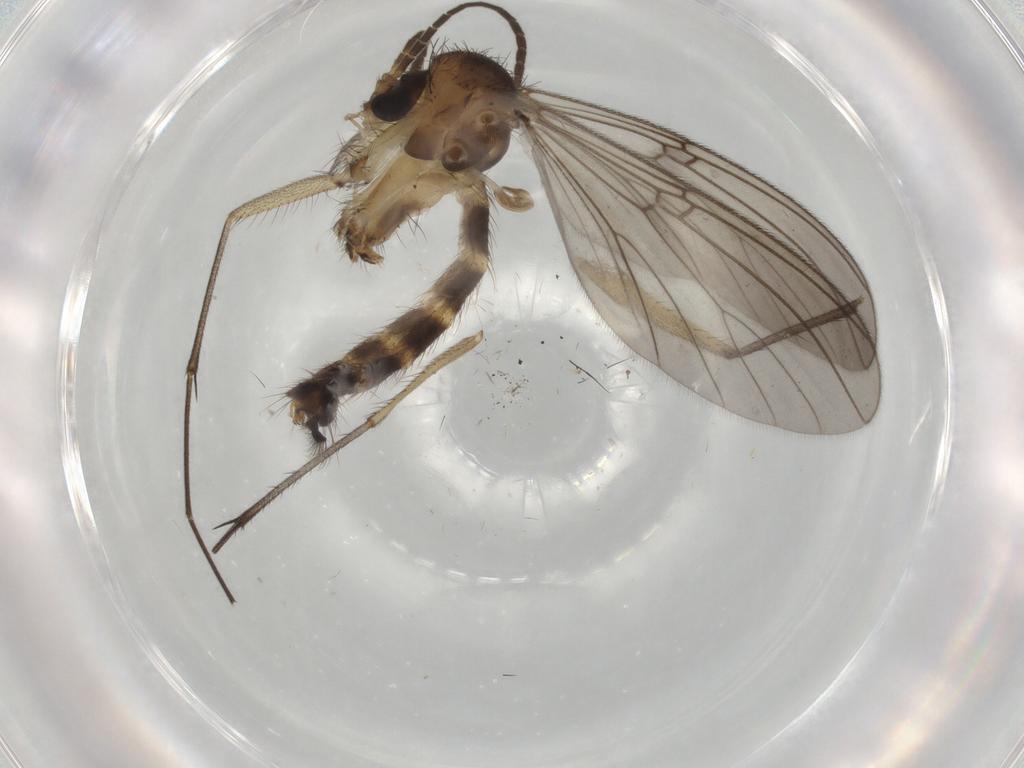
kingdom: Animalia
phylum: Arthropoda
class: Insecta
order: Diptera
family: Mycetophilidae
